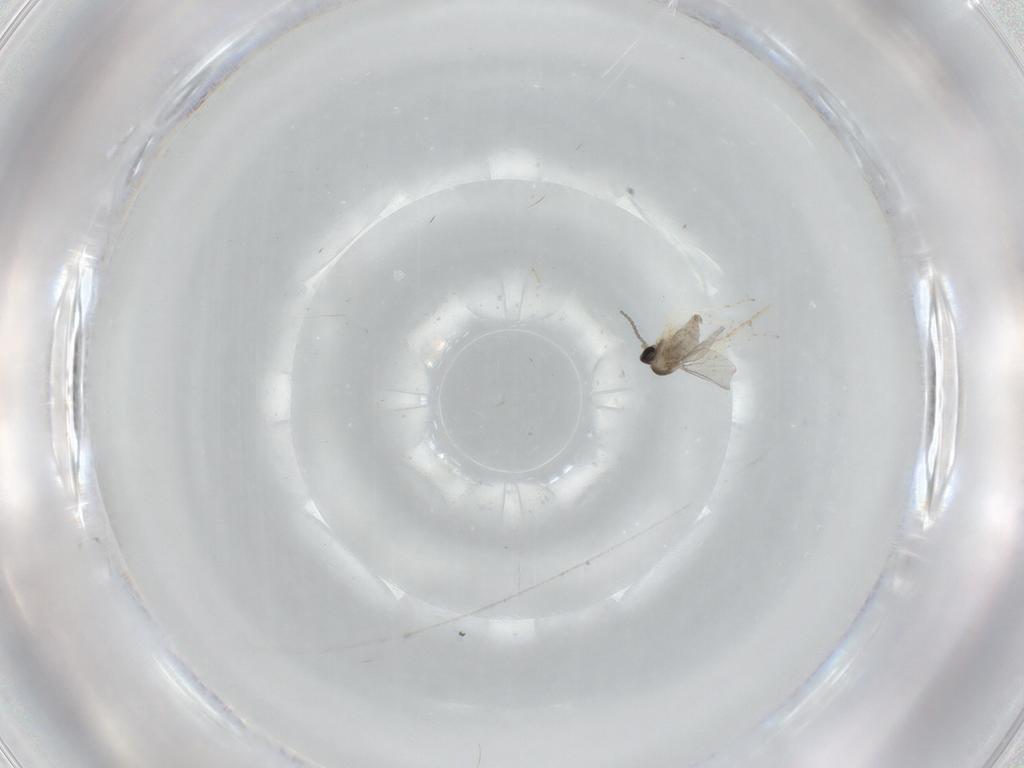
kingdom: Animalia
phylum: Arthropoda
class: Insecta
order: Diptera
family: Cecidomyiidae
